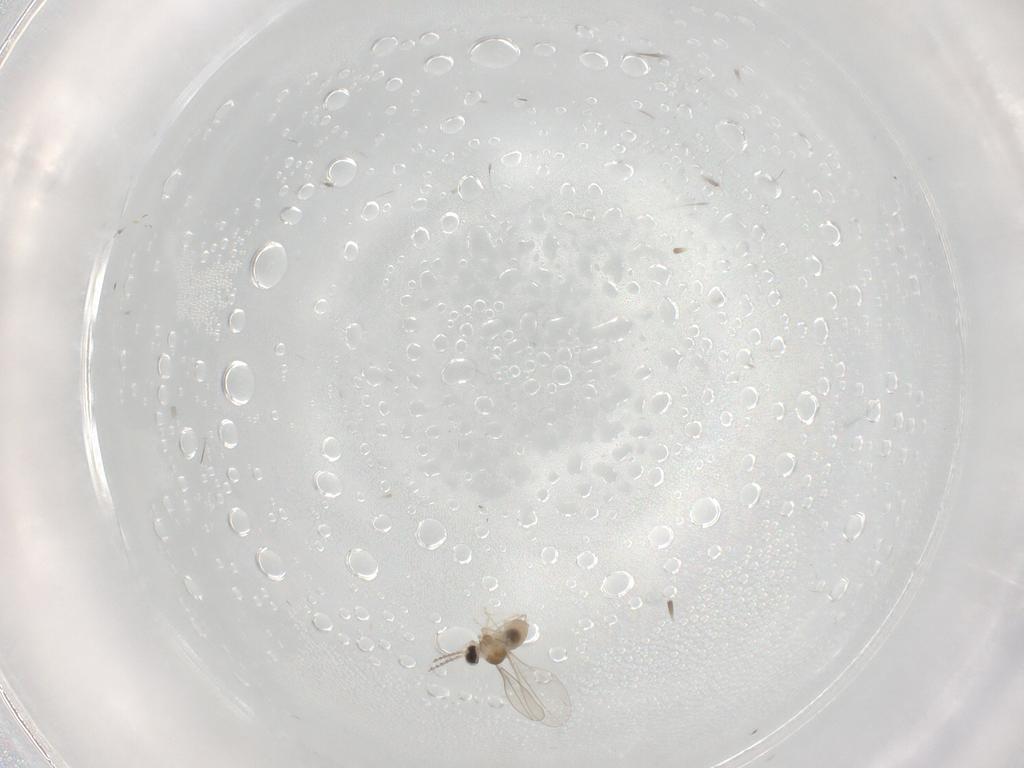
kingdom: Animalia
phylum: Arthropoda
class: Insecta
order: Diptera
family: Cecidomyiidae
